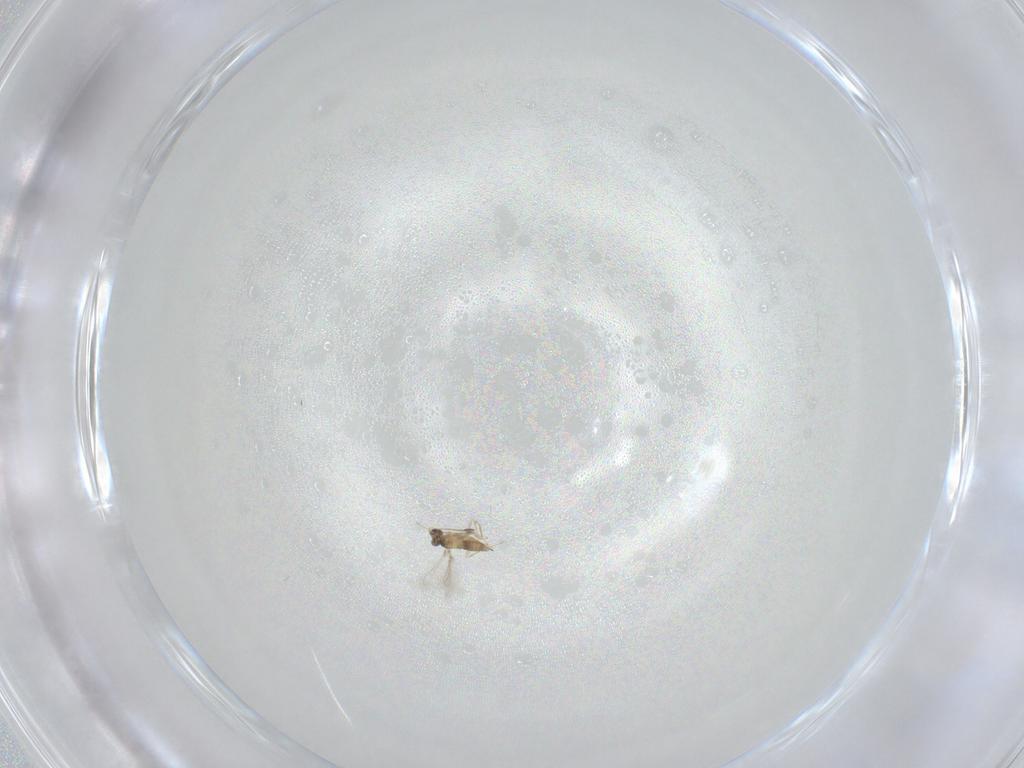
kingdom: Animalia
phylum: Arthropoda
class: Insecta
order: Hymenoptera
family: Mymaridae
